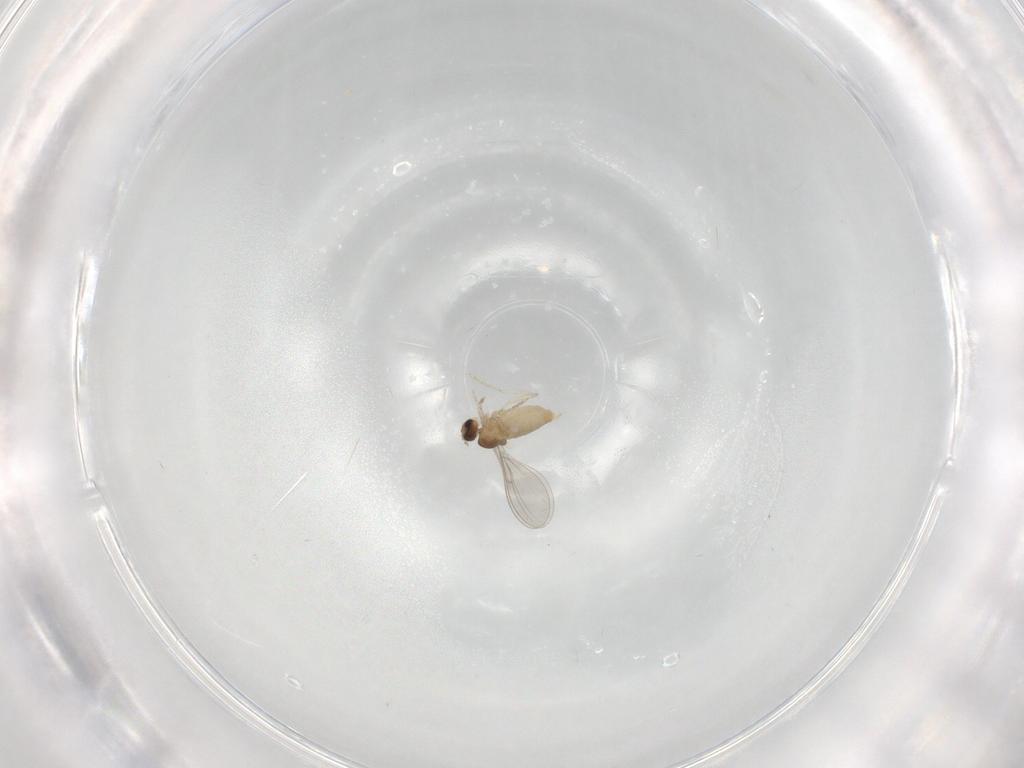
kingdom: Animalia
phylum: Arthropoda
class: Insecta
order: Diptera
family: Cecidomyiidae
